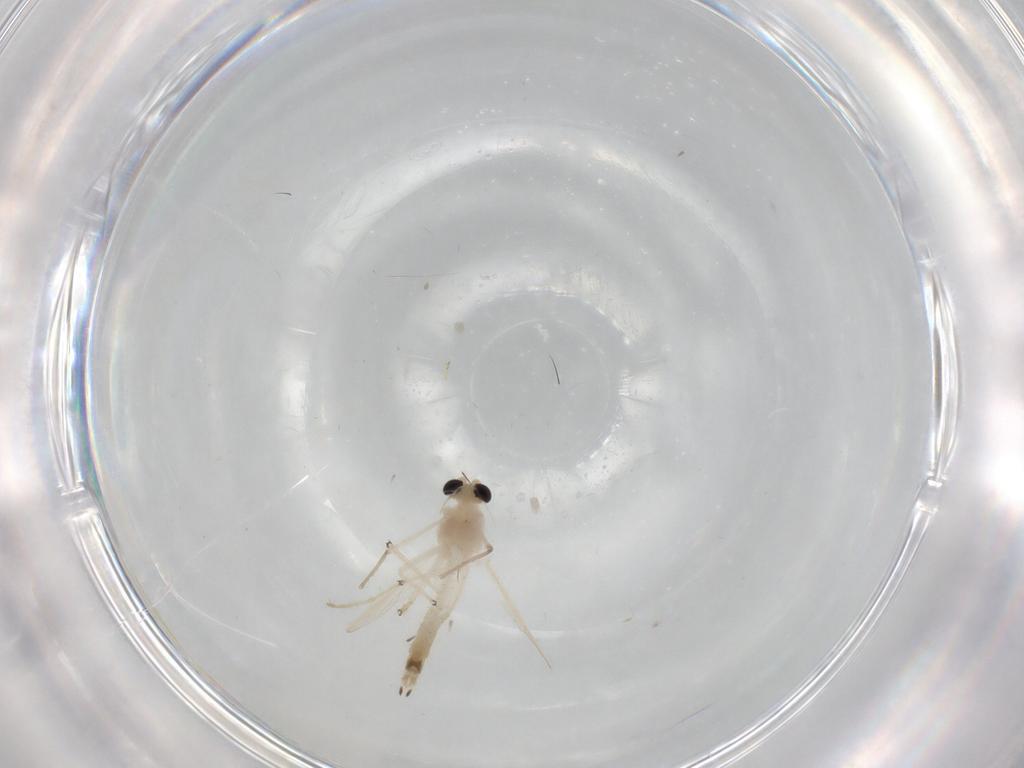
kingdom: Animalia
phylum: Arthropoda
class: Insecta
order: Diptera
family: Chironomidae
